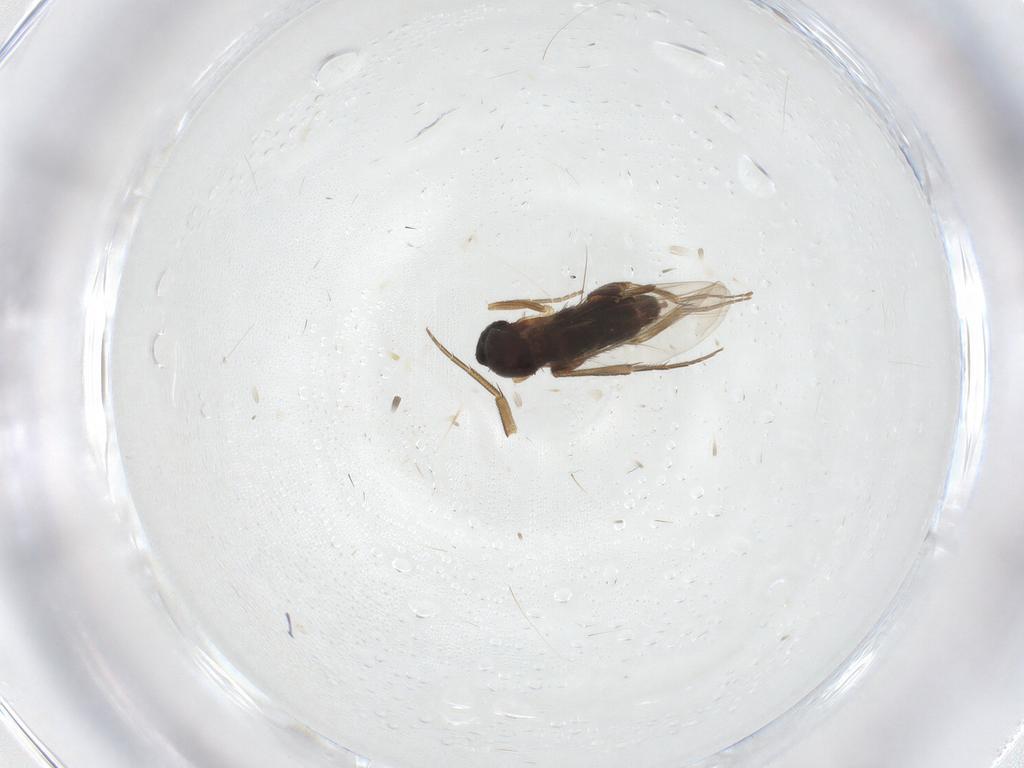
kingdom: Animalia
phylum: Arthropoda
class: Insecta
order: Diptera
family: Phoridae
